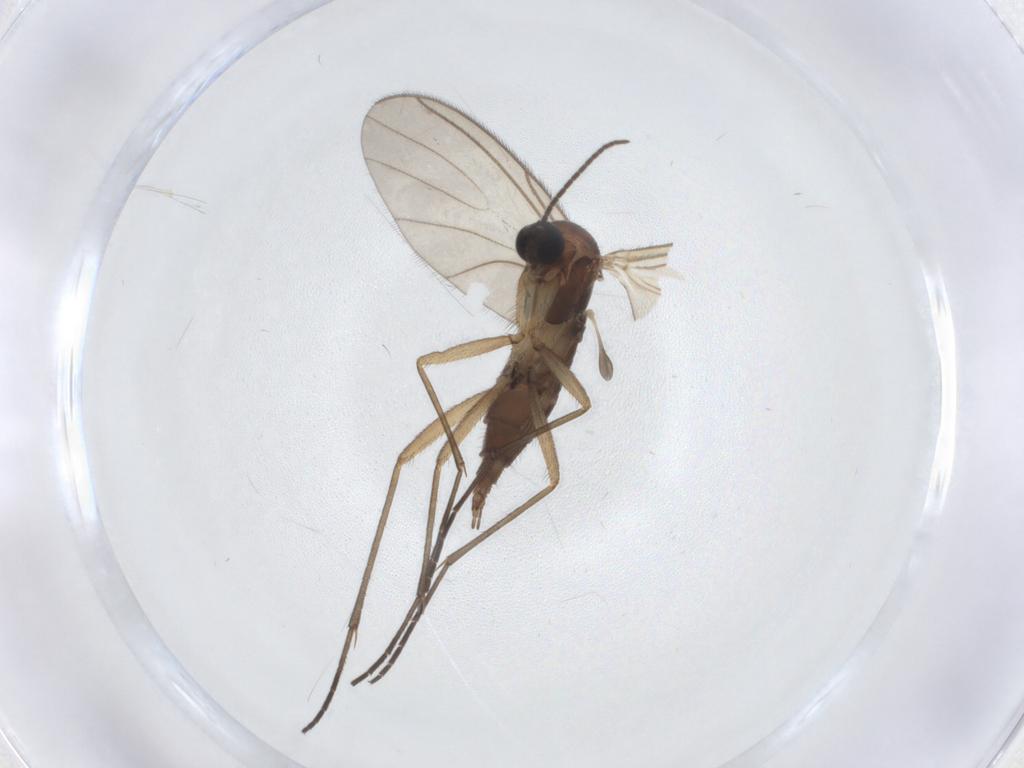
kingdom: Animalia
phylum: Arthropoda
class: Insecta
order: Diptera
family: Sciaridae
